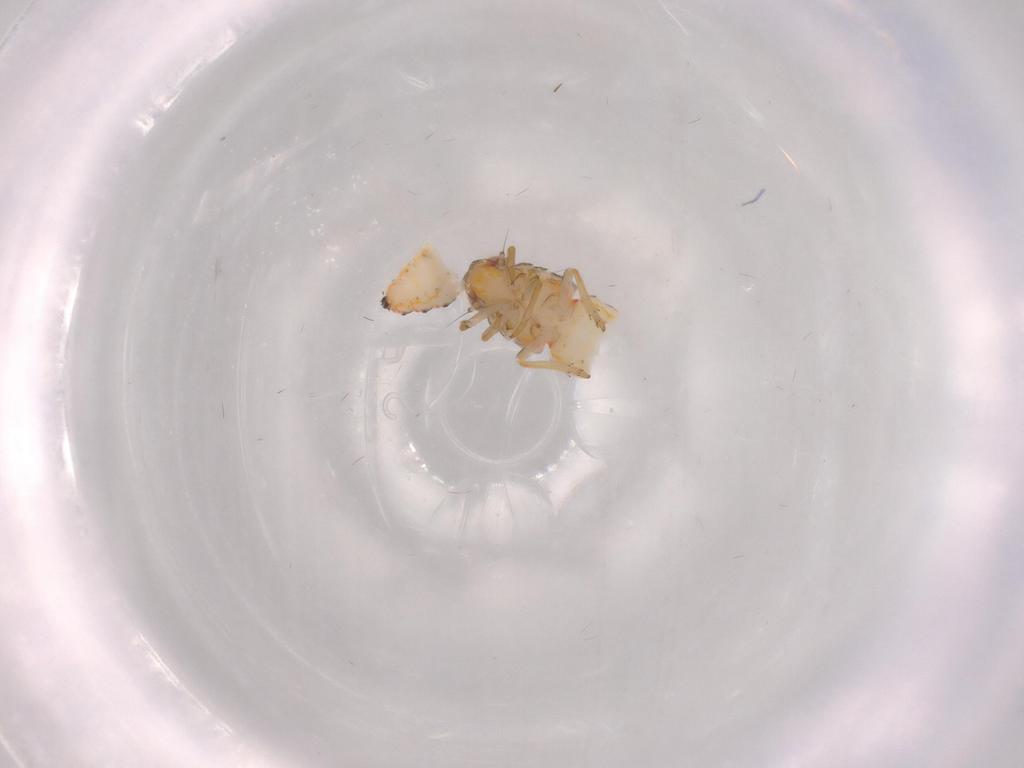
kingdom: Animalia
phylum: Arthropoda
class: Insecta
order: Hemiptera
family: Issidae
